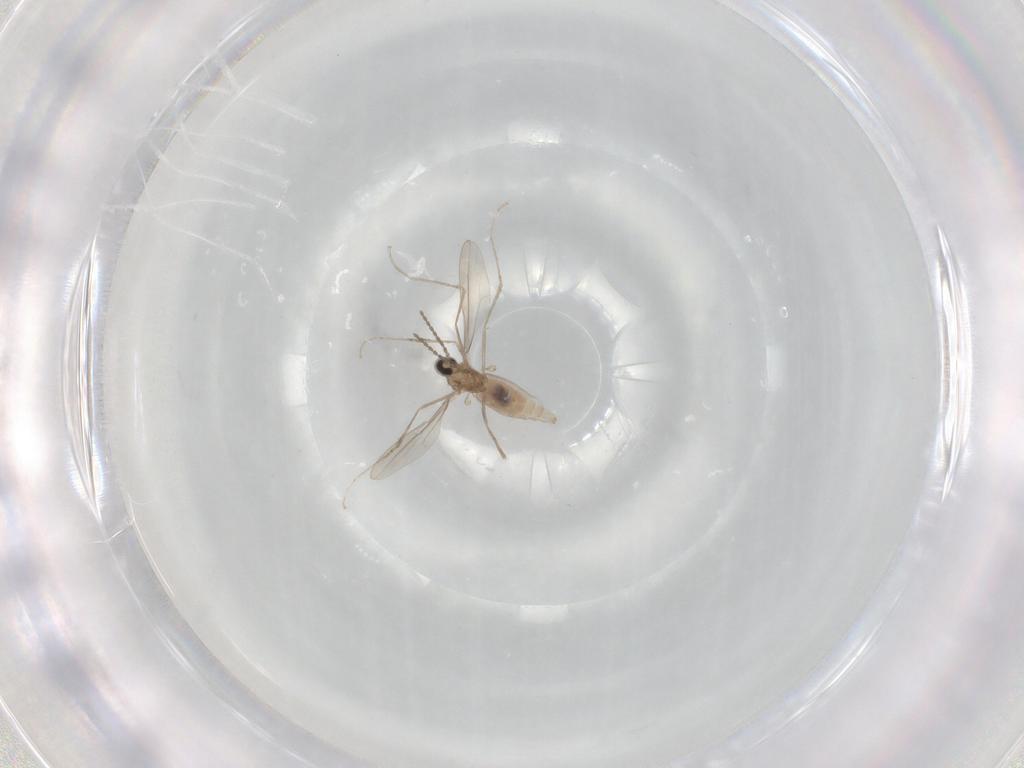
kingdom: Animalia
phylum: Arthropoda
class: Insecta
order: Diptera
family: Cecidomyiidae
